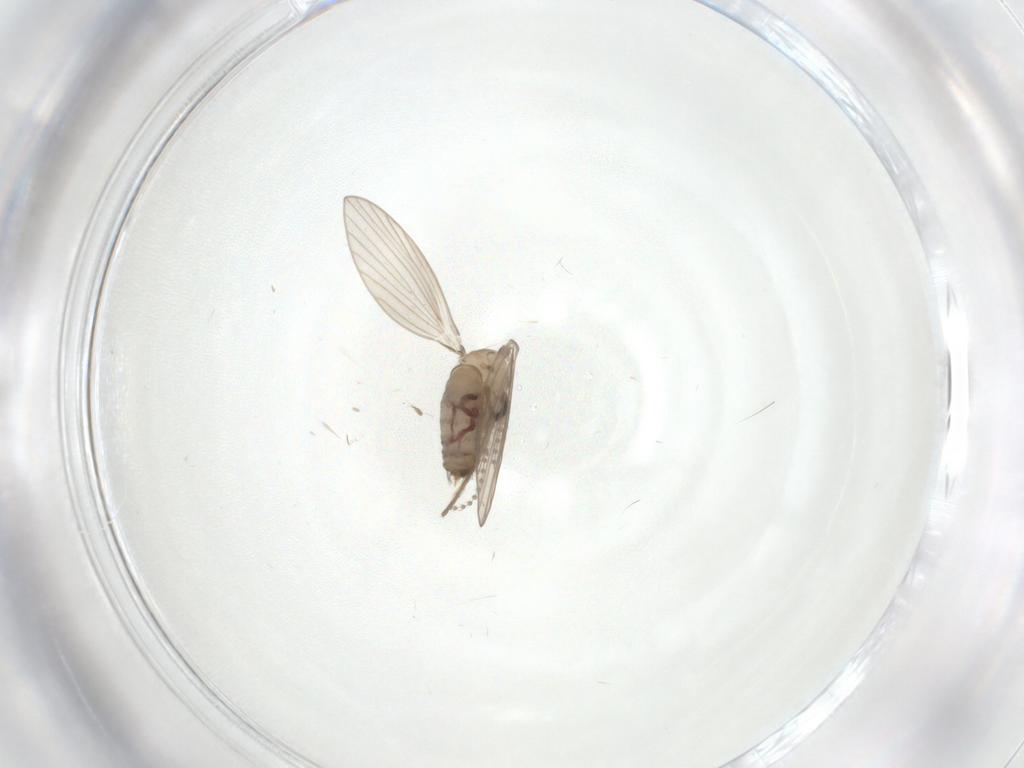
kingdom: Animalia
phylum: Arthropoda
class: Insecta
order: Diptera
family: Psychodidae
